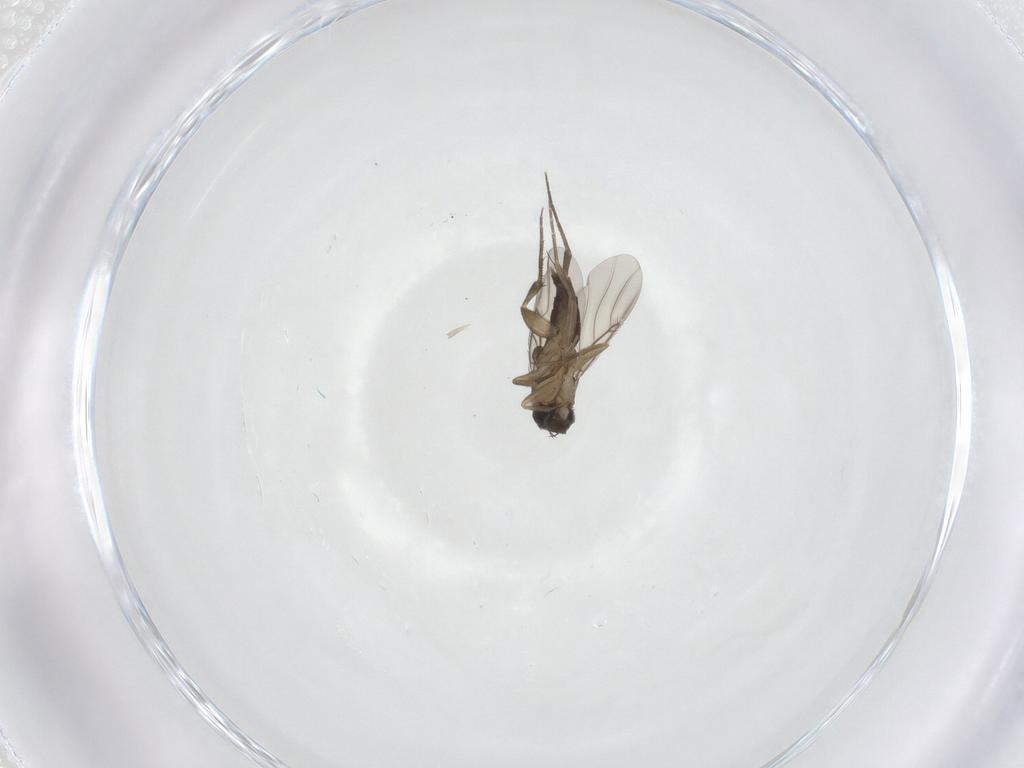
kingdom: Animalia
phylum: Arthropoda
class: Insecta
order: Diptera
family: Phoridae
